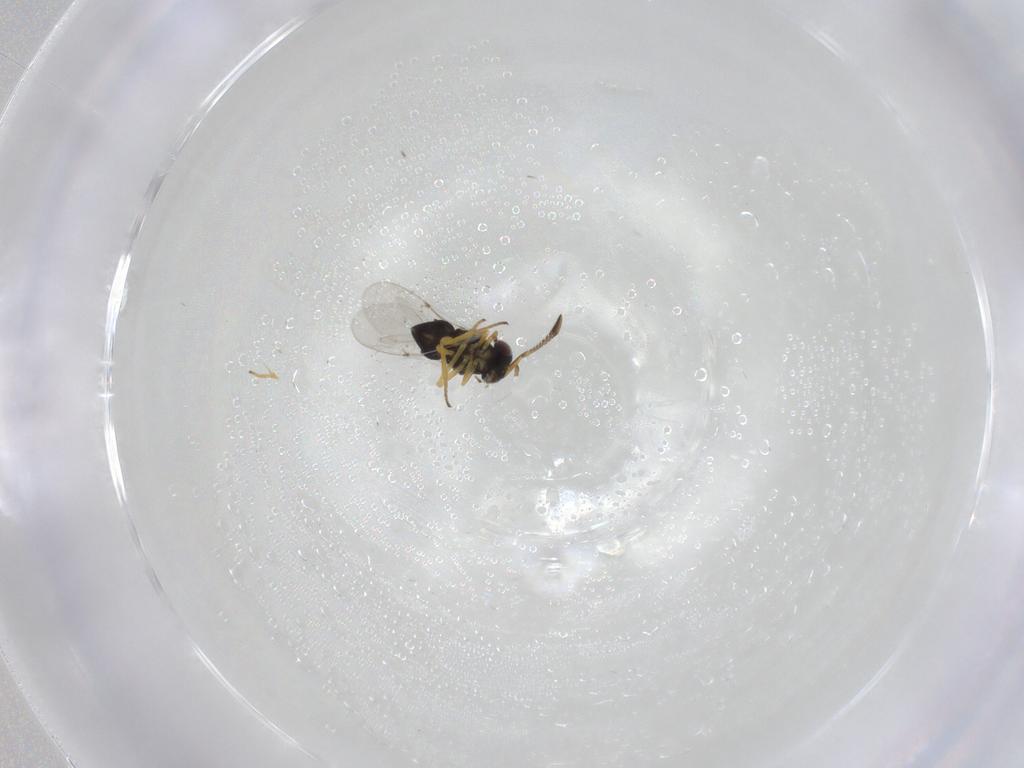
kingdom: Animalia
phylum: Arthropoda
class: Insecta
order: Hymenoptera
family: Encyrtidae
